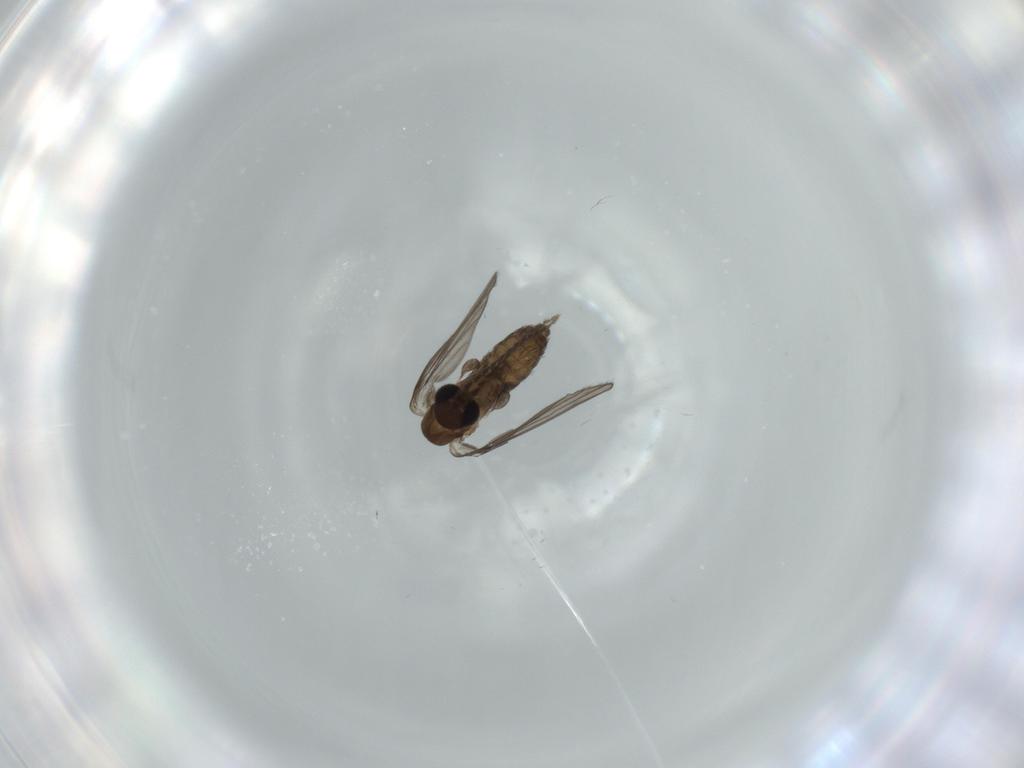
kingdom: Animalia
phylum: Arthropoda
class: Insecta
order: Diptera
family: Psychodidae
